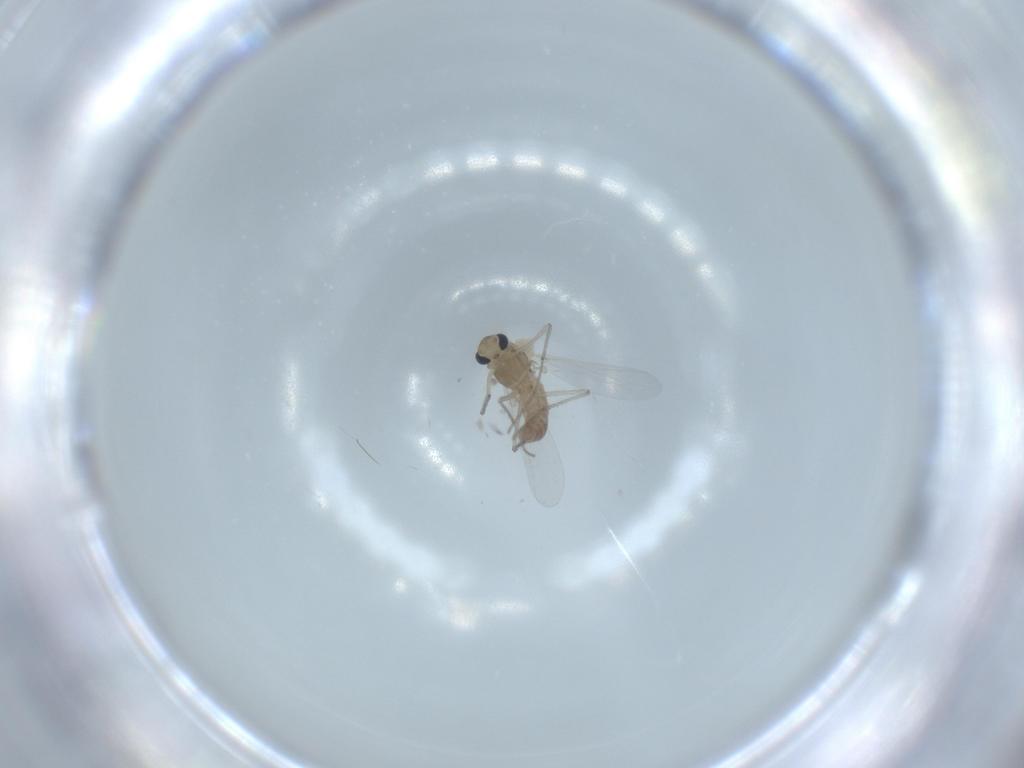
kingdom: Animalia
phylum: Arthropoda
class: Insecta
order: Diptera
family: Chironomidae
